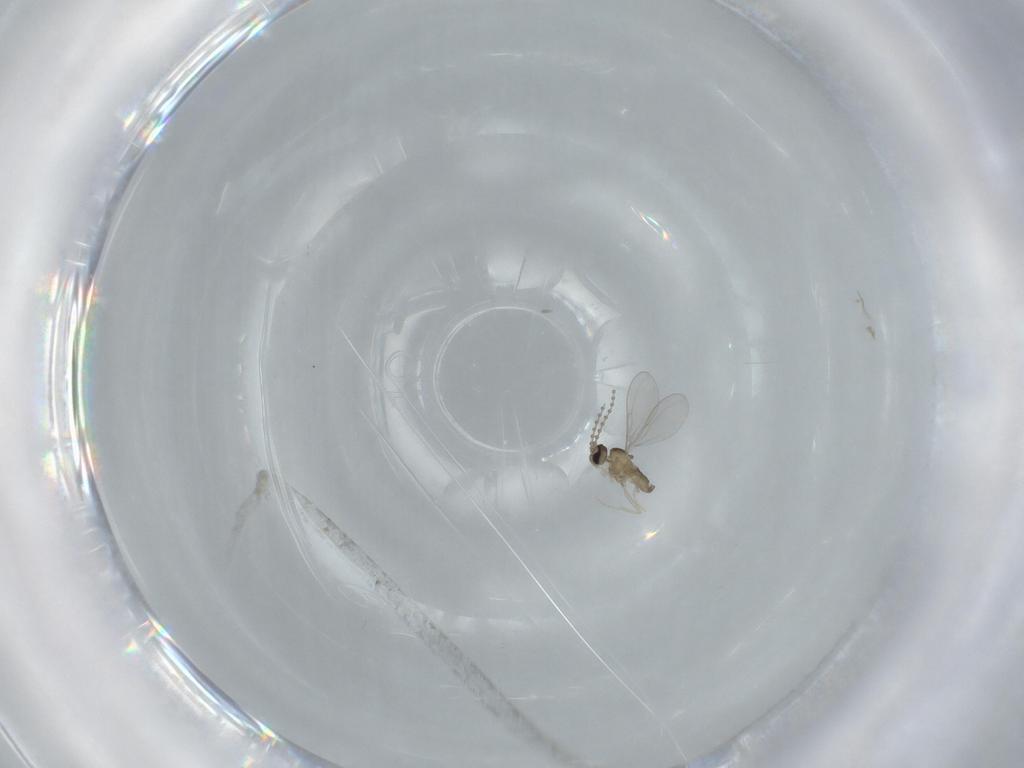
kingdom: Animalia
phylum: Arthropoda
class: Insecta
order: Diptera
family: Cecidomyiidae
